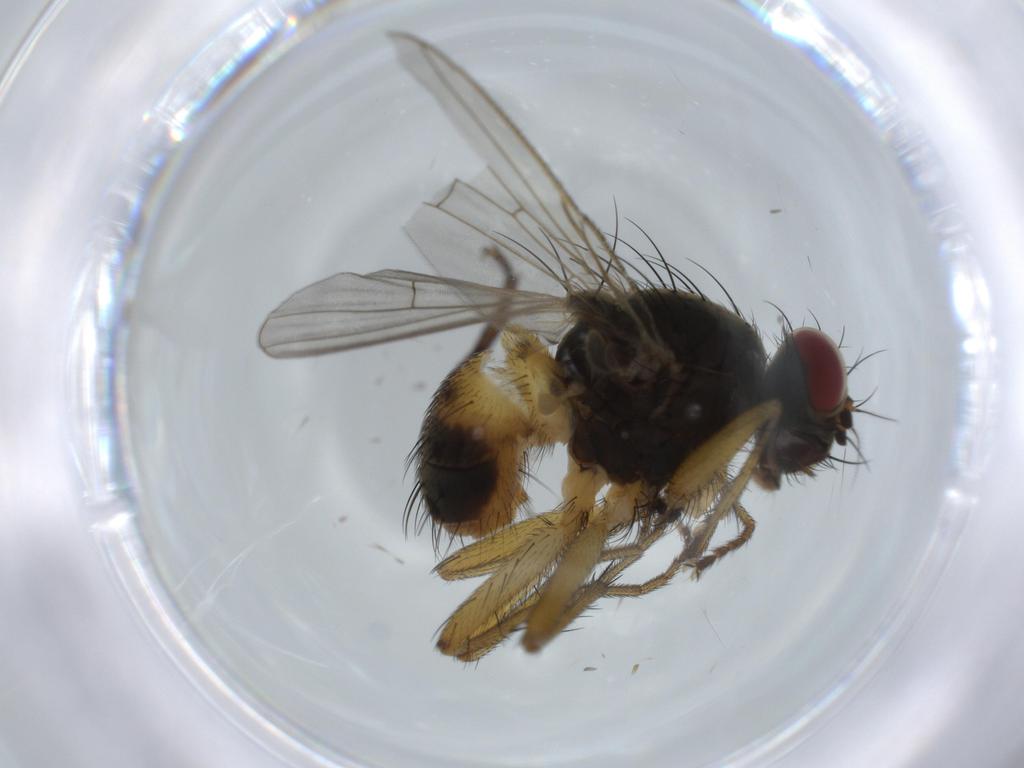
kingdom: Animalia
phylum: Arthropoda
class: Insecta
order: Diptera
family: Muscidae
